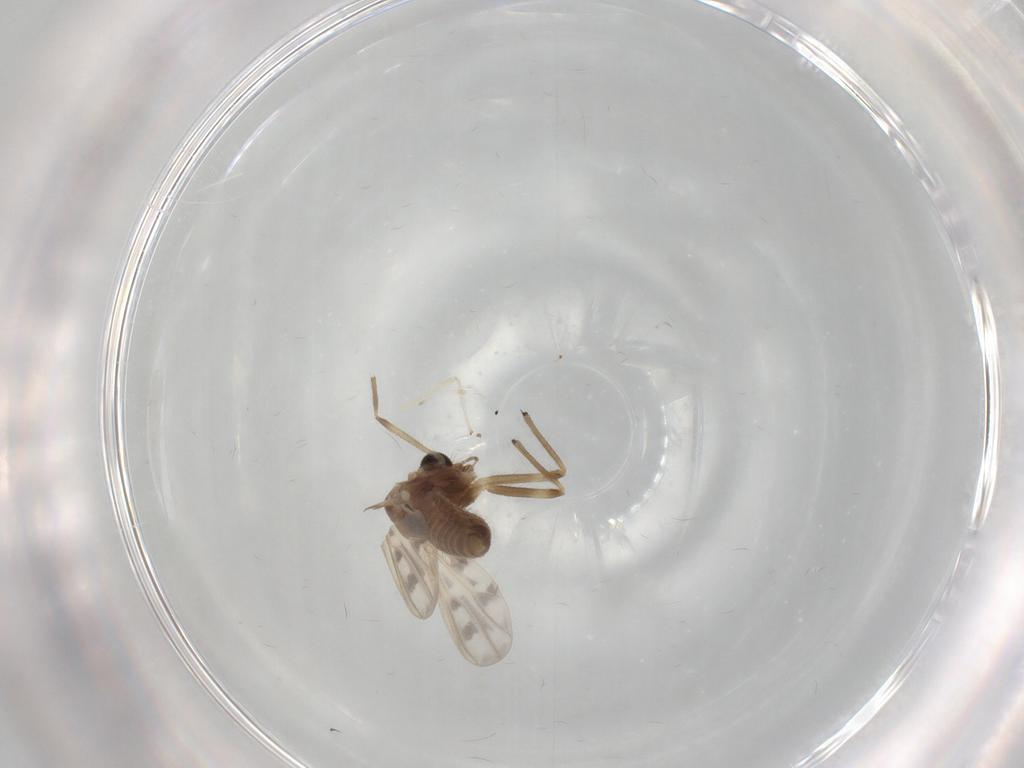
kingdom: Animalia
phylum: Arthropoda
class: Insecta
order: Diptera
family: Chironomidae
